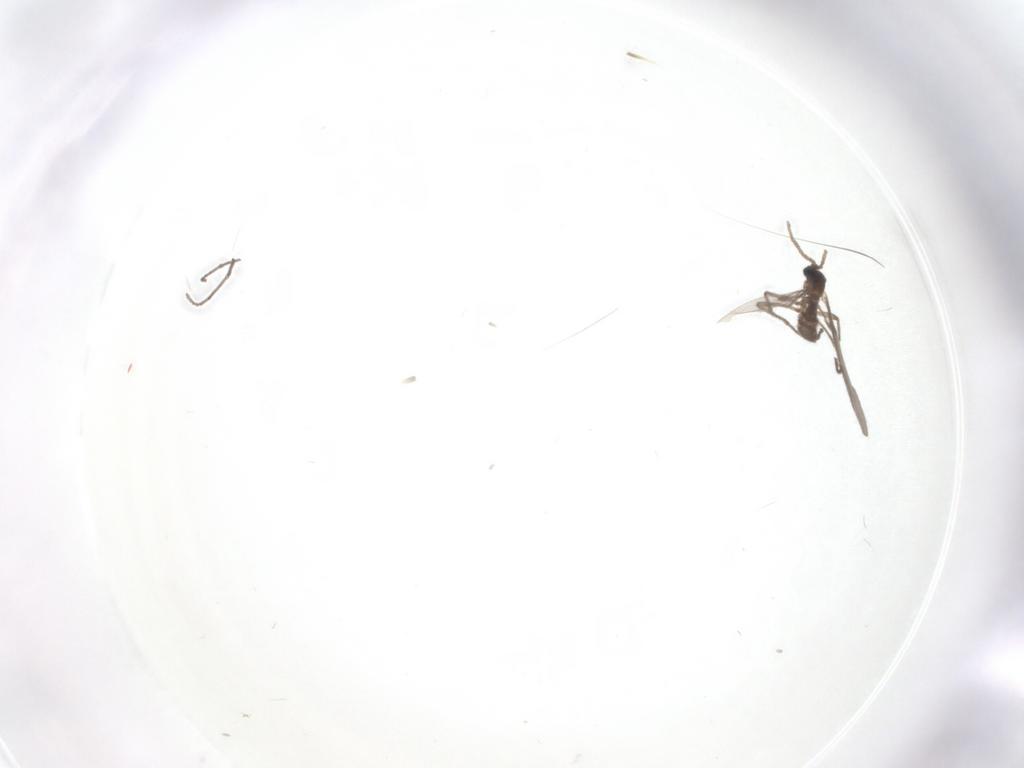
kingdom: Animalia
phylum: Arthropoda
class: Insecta
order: Diptera
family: Sciaridae
